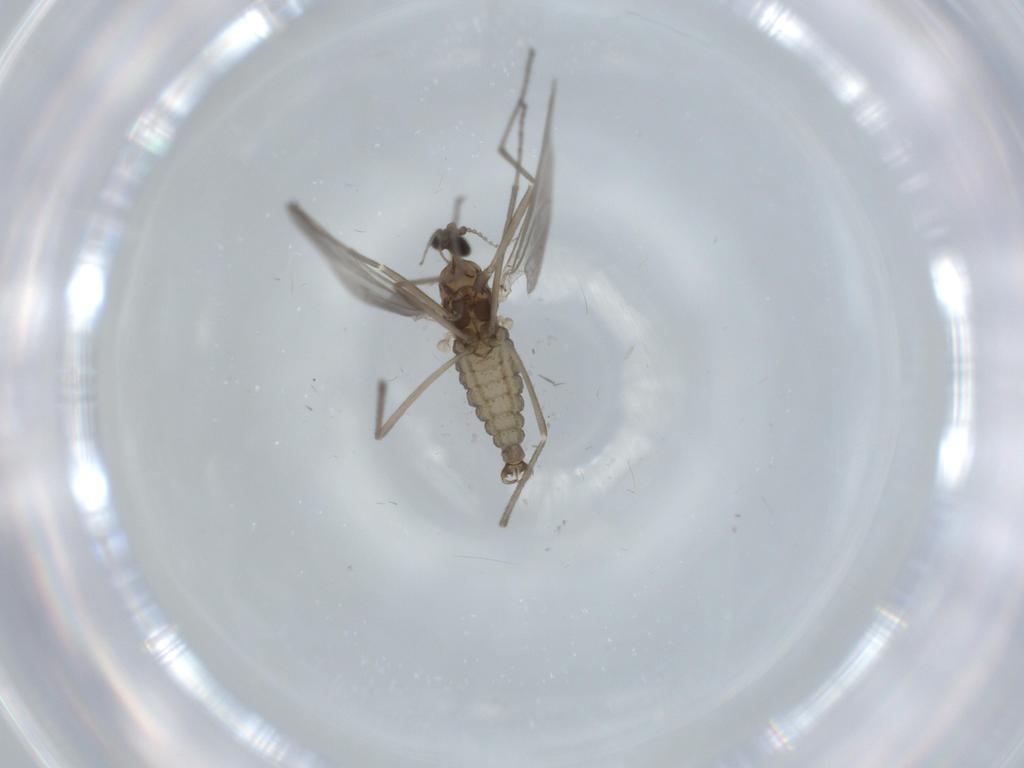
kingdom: Animalia
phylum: Arthropoda
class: Insecta
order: Diptera
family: Cecidomyiidae
